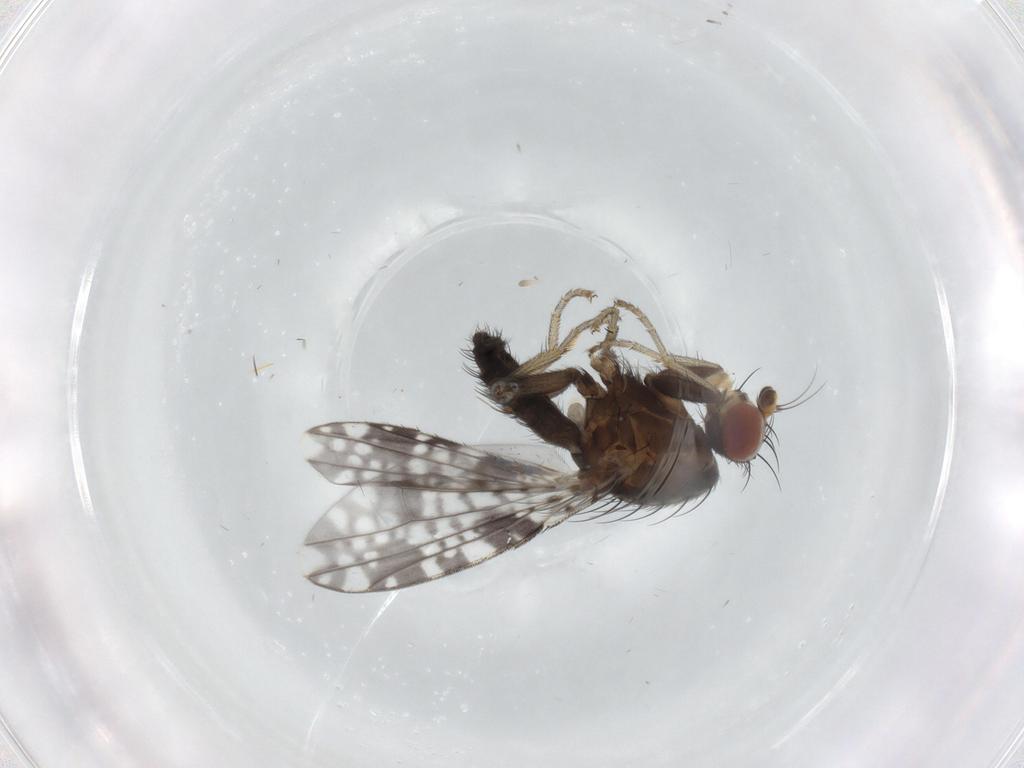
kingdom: Animalia
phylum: Arthropoda
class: Insecta
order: Diptera
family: Tephritidae
